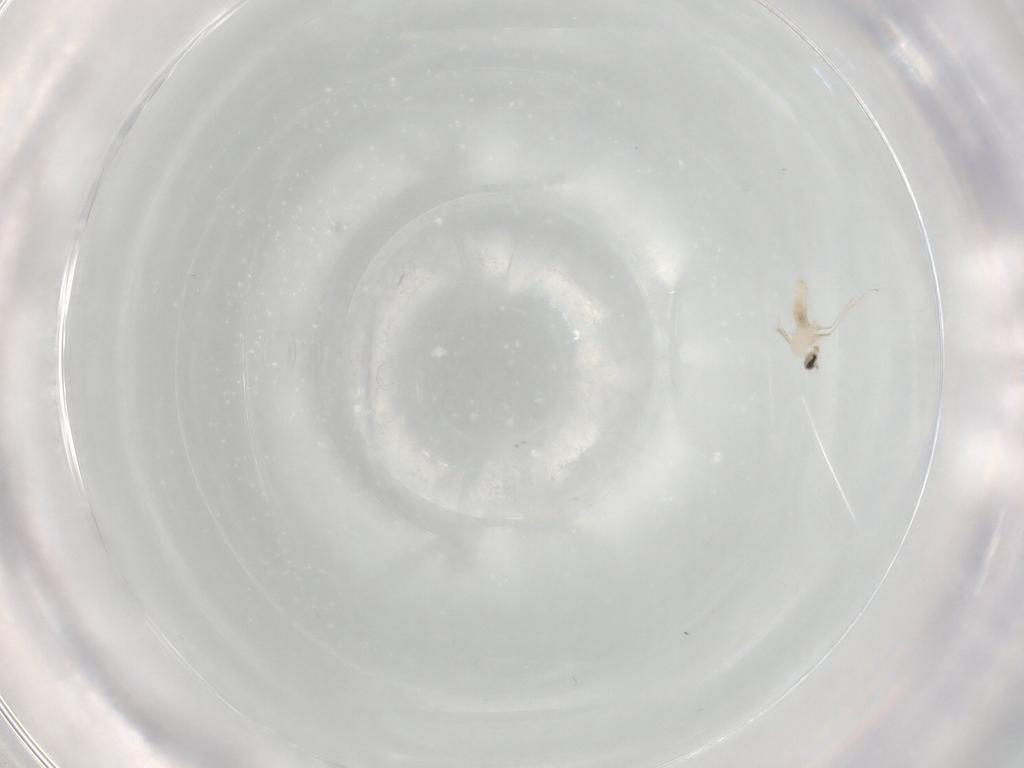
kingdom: Animalia
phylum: Arthropoda
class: Insecta
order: Diptera
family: Cecidomyiidae
